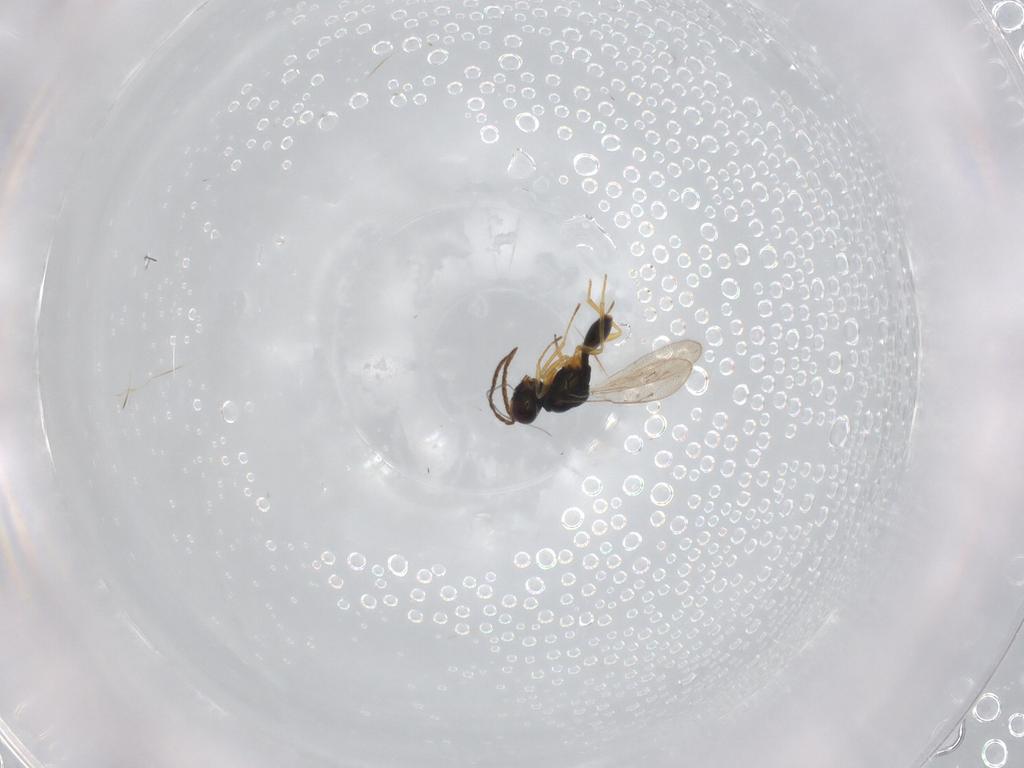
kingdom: Animalia
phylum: Arthropoda
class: Insecta
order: Hymenoptera
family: Pteromalidae
